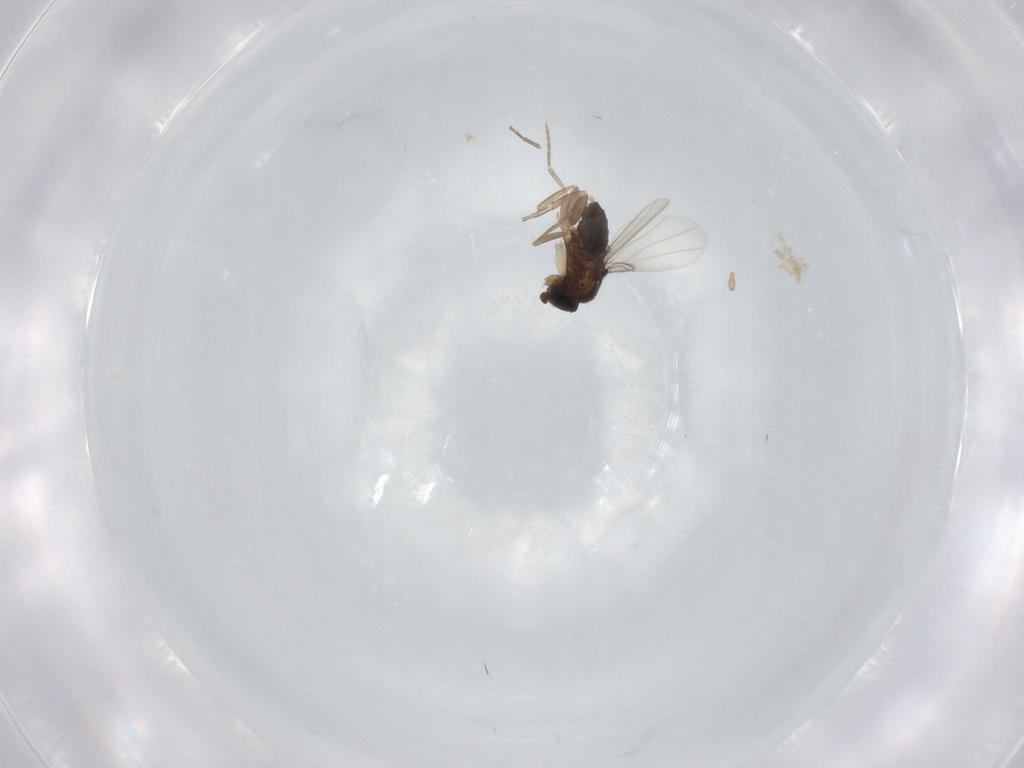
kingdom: Animalia
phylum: Arthropoda
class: Insecta
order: Diptera
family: Phoridae
